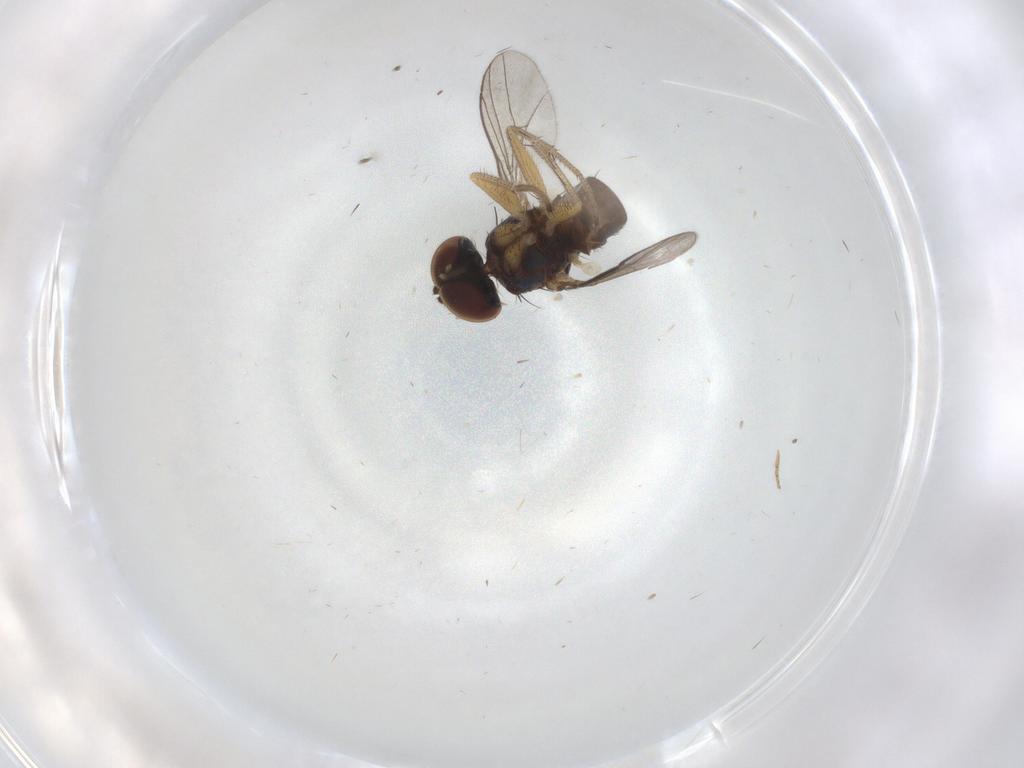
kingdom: Animalia
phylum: Arthropoda
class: Insecta
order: Diptera
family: Dolichopodidae
